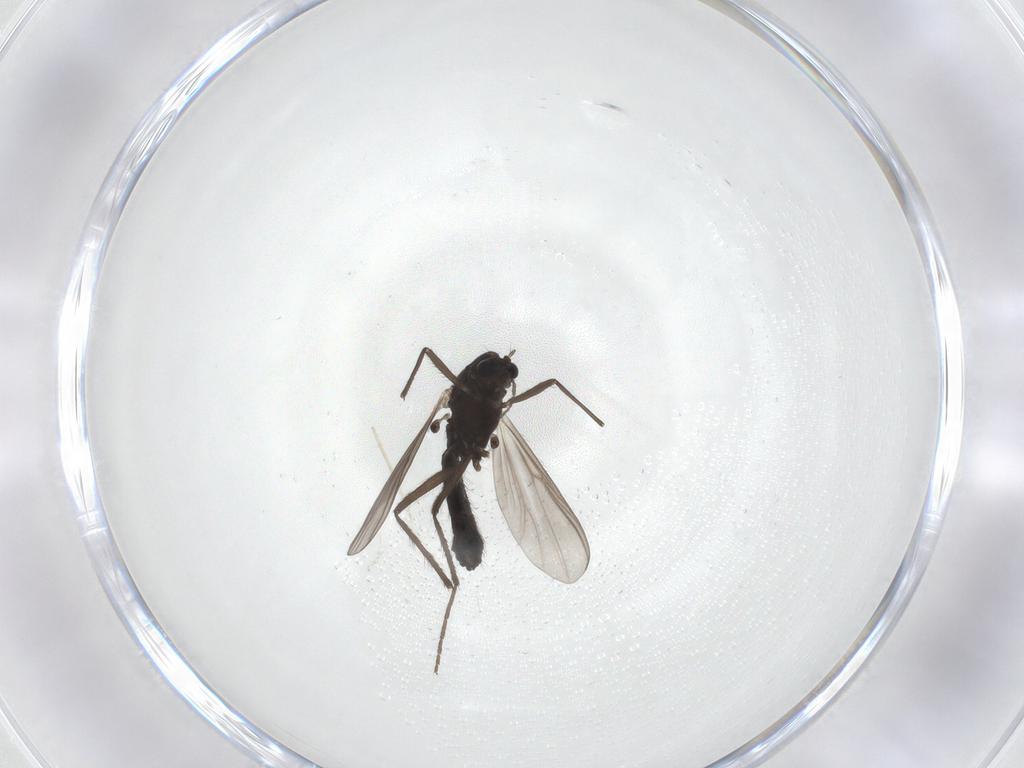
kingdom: Animalia
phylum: Arthropoda
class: Insecta
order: Diptera
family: Chironomidae
